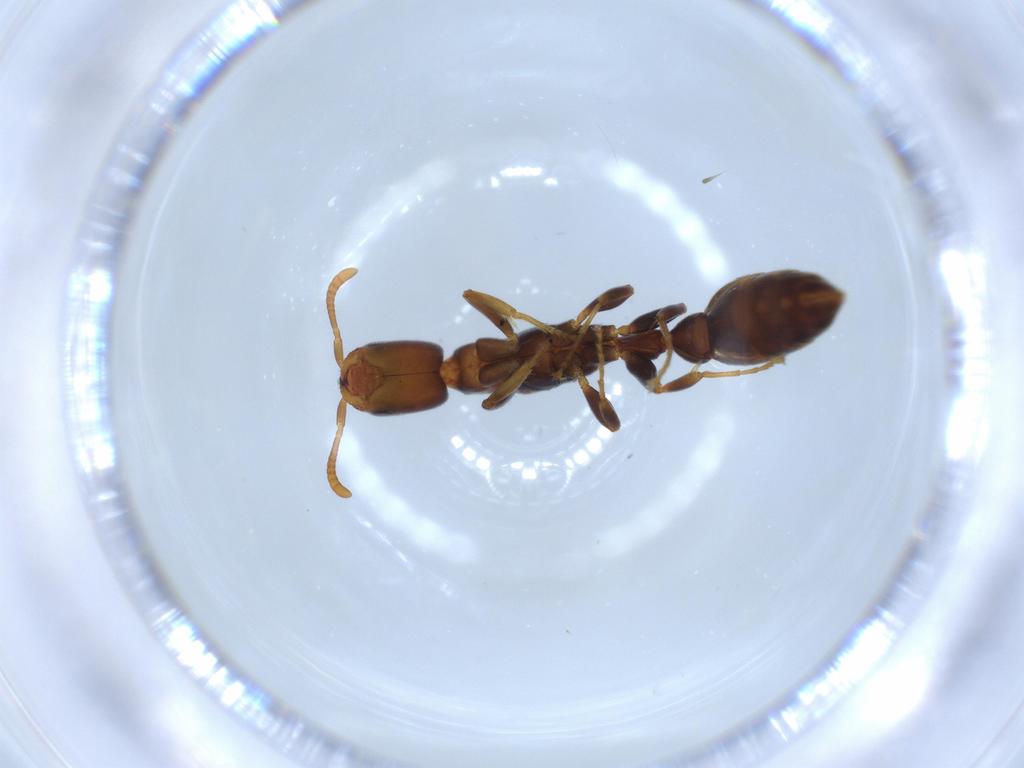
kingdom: Animalia
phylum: Arthropoda
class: Insecta
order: Hymenoptera
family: Formicidae
